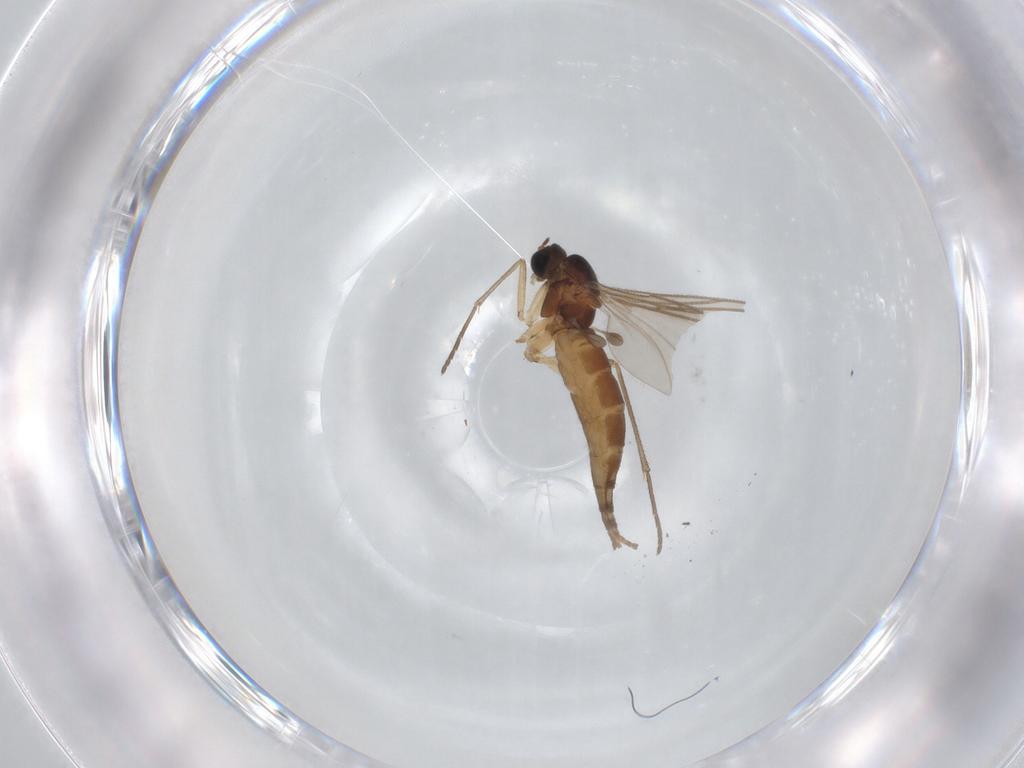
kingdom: Animalia
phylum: Arthropoda
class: Insecta
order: Diptera
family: Sciaridae
